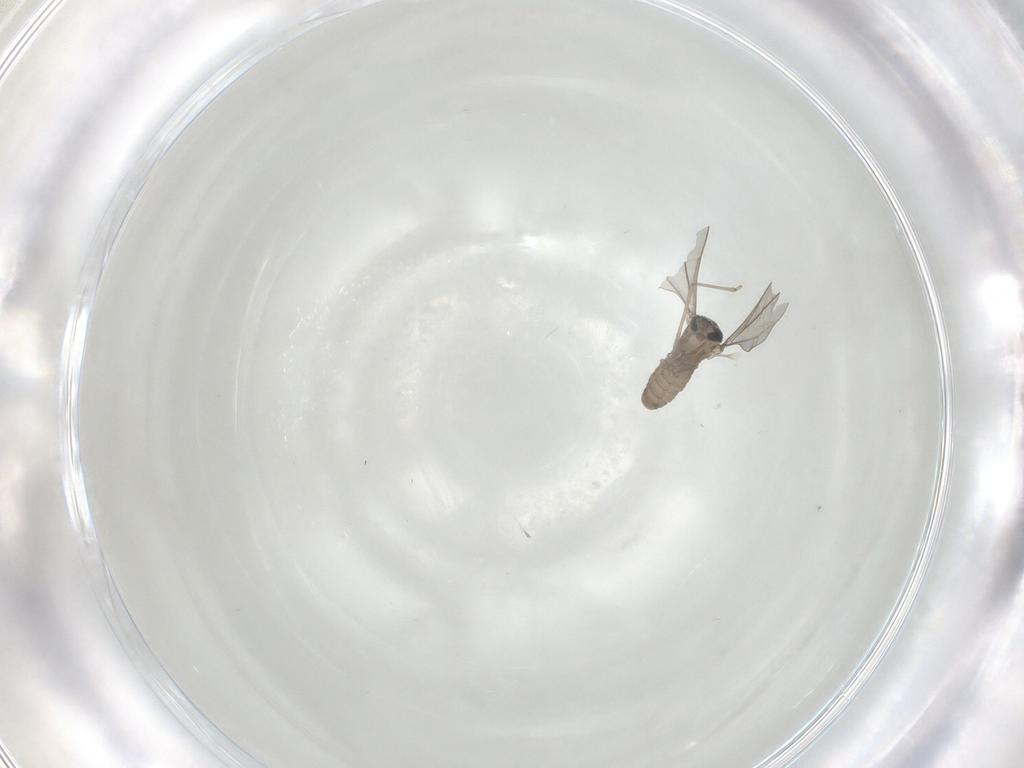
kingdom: Animalia
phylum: Arthropoda
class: Insecta
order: Diptera
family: Cecidomyiidae
